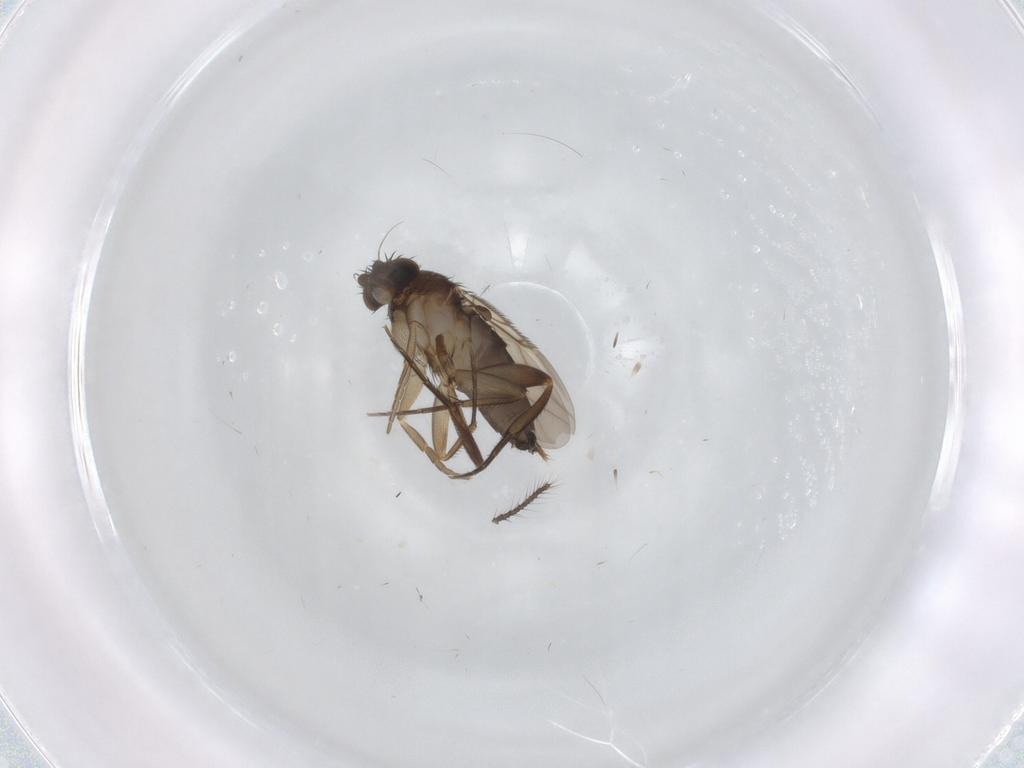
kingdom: Animalia
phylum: Arthropoda
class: Insecta
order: Diptera
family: Phoridae
